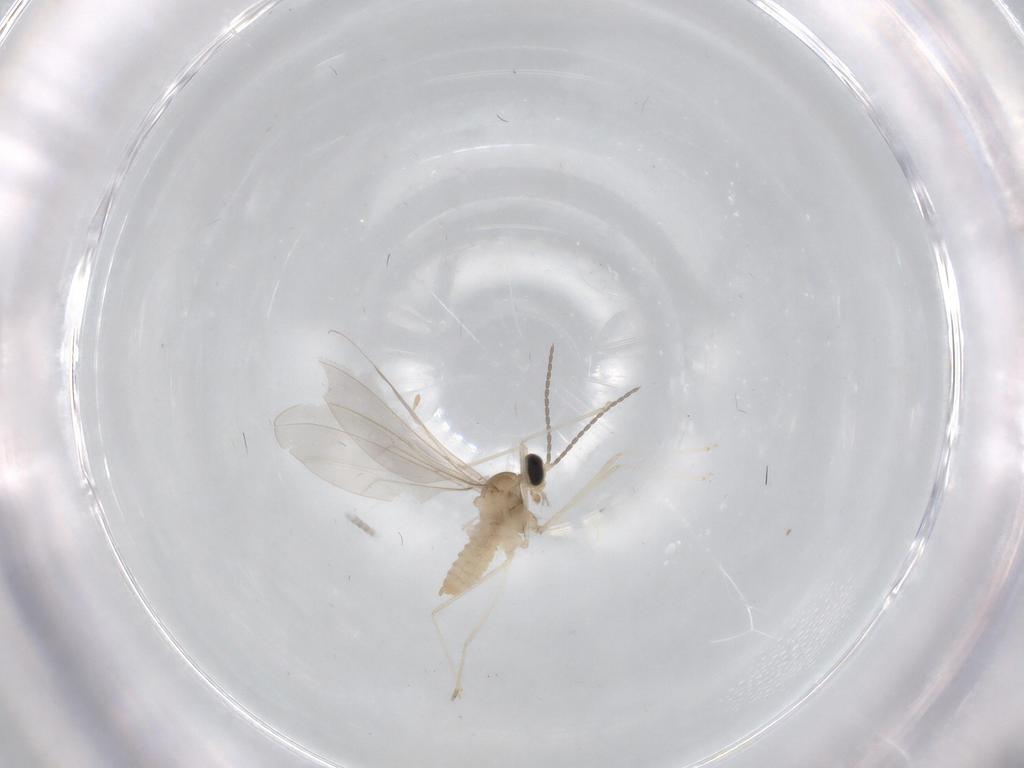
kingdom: Animalia
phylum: Arthropoda
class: Insecta
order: Diptera
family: Cecidomyiidae
